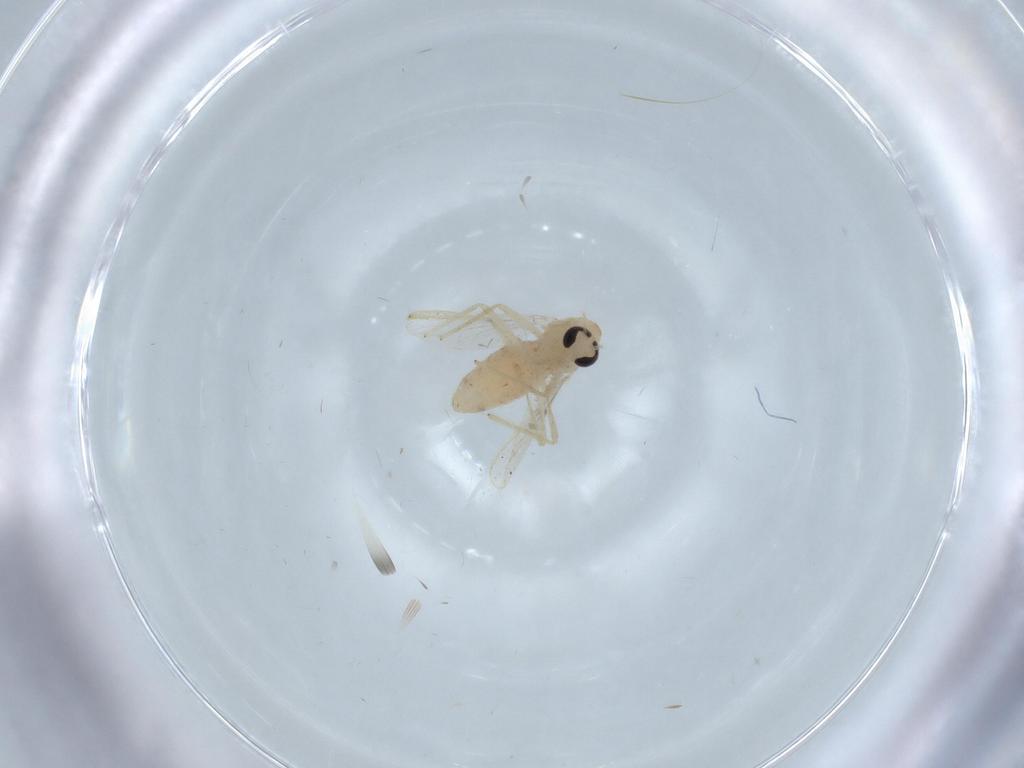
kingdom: Animalia
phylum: Arthropoda
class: Insecta
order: Diptera
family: Chironomidae
